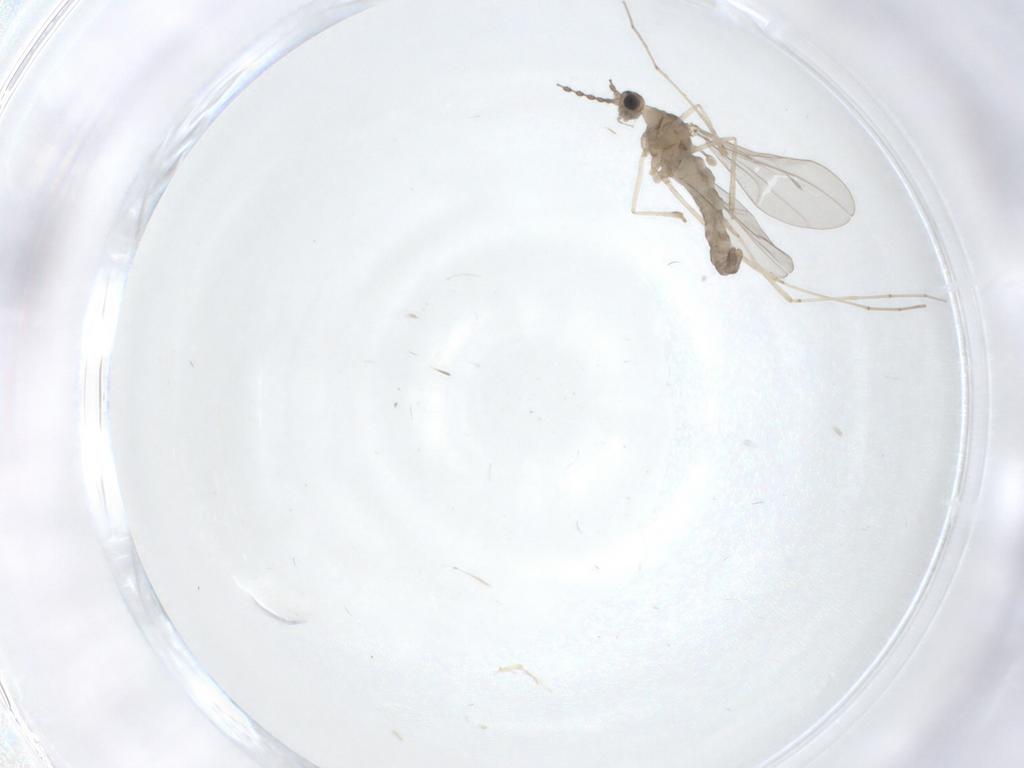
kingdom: Animalia
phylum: Arthropoda
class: Insecta
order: Diptera
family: Cecidomyiidae
